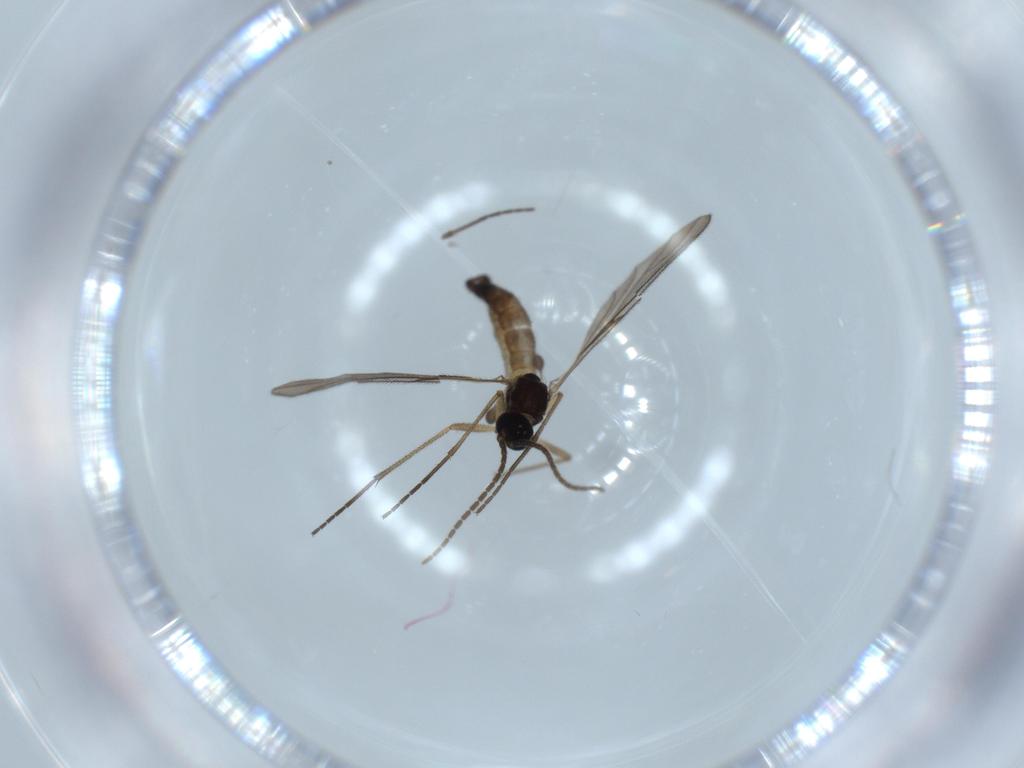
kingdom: Animalia
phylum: Arthropoda
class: Insecta
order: Diptera
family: Sciaridae
